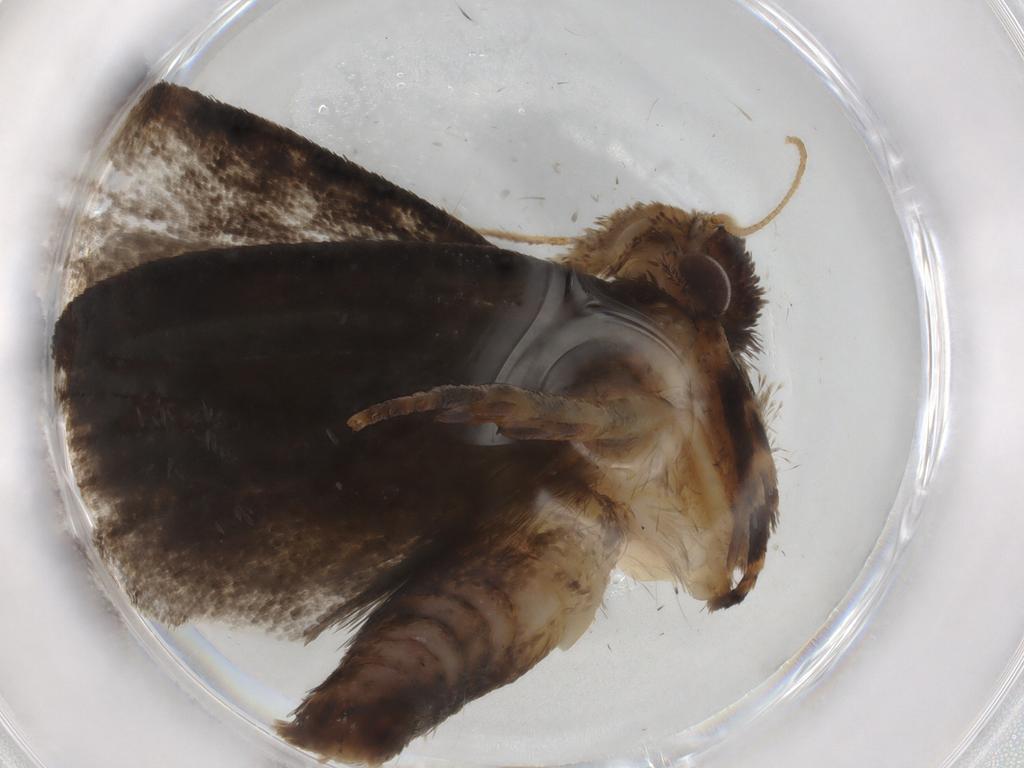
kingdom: Animalia
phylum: Arthropoda
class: Insecta
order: Lepidoptera
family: Tineidae
